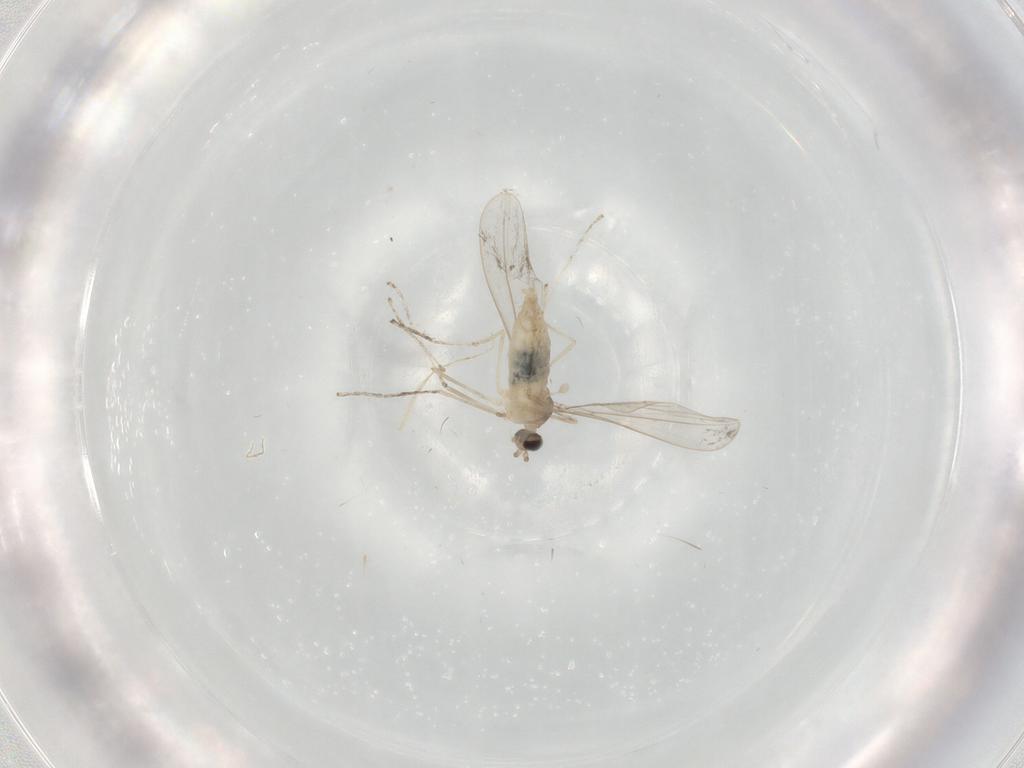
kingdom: Animalia
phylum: Arthropoda
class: Insecta
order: Diptera
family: Cecidomyiidae
